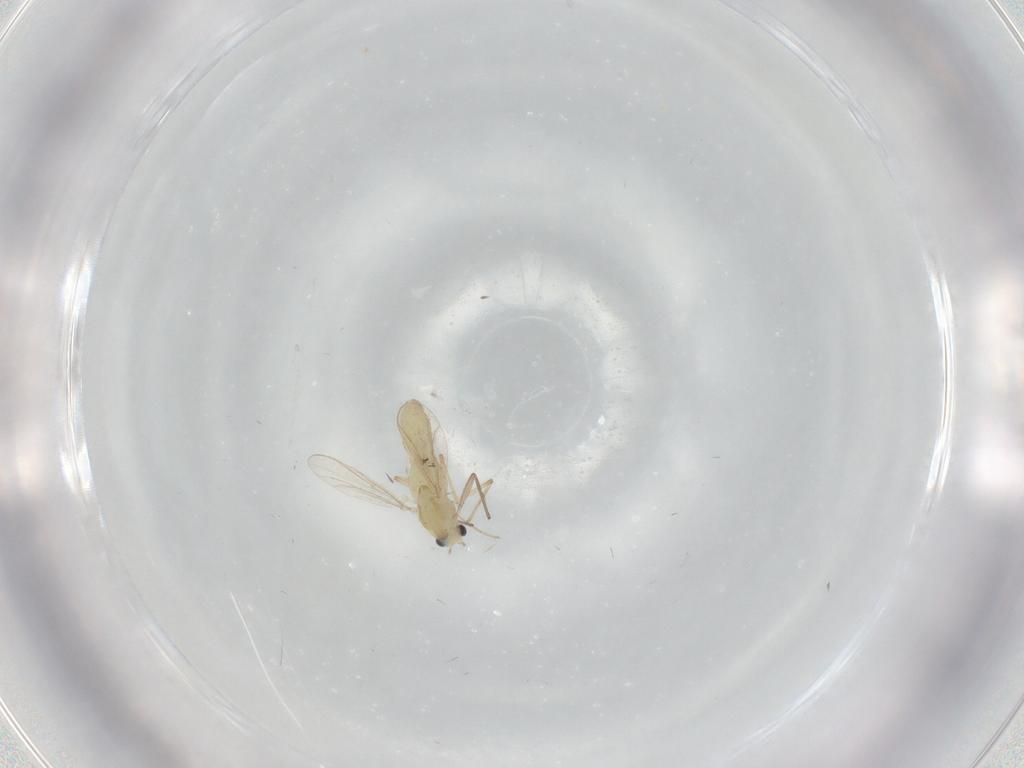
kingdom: Animalia
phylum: Arthropoda
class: Insecta
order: Diptera
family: Chironomidae
